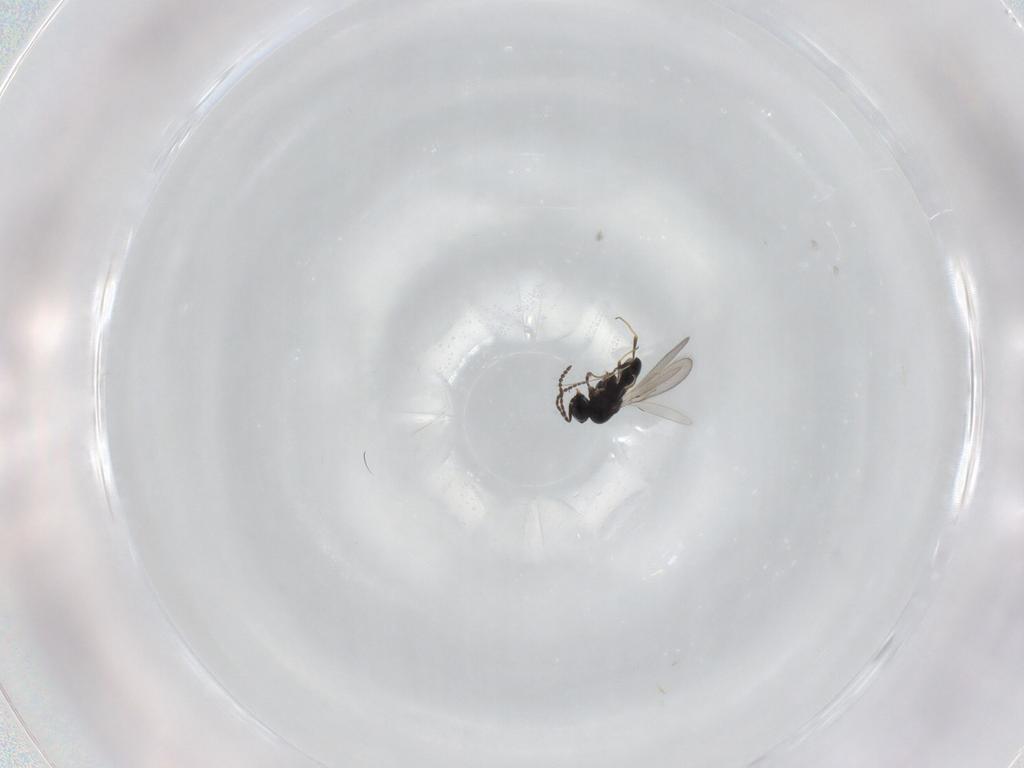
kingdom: Animalia
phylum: Arthropoda
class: Insecta
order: Hymenoptera
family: Scelionidae
